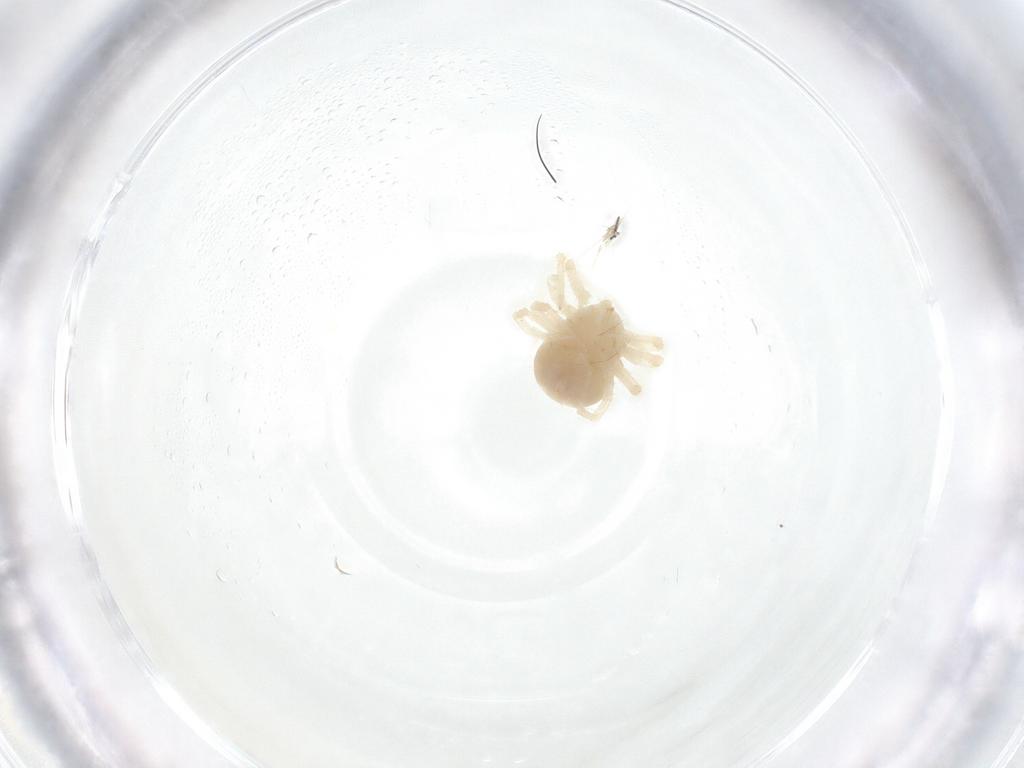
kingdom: Animalia
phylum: Arthropoda
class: Arachnida
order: Trombidiformes
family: Anystidae
